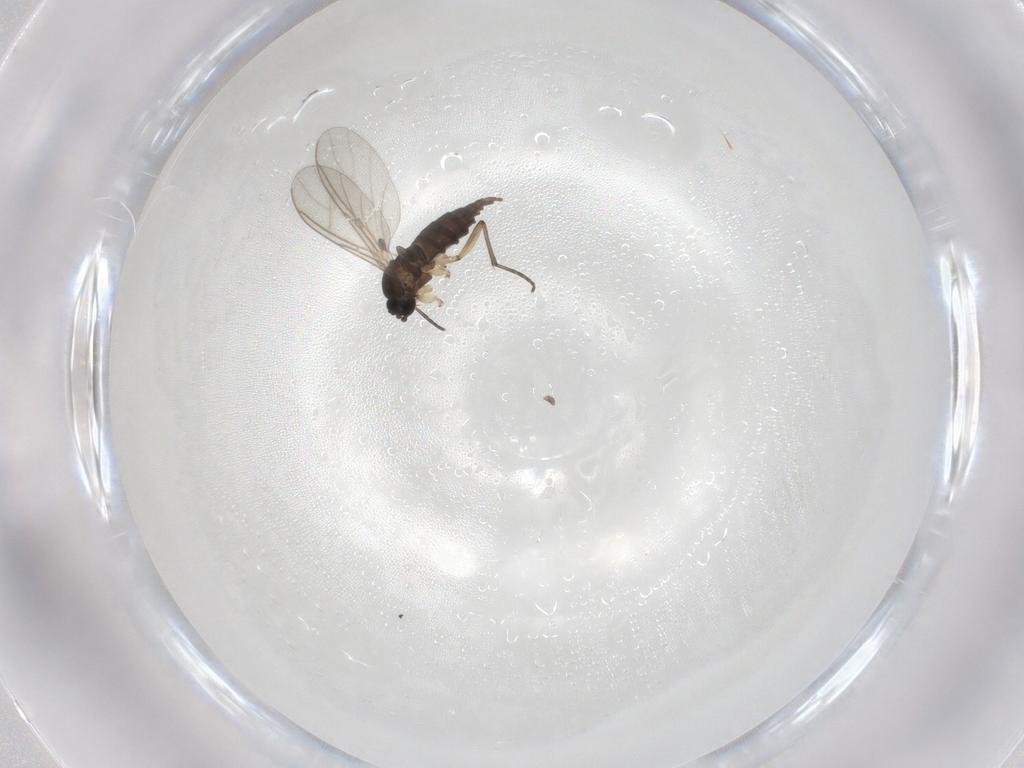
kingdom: Animalia
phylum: Arthropoda
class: Insecta
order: Diptera
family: Sciaridae
